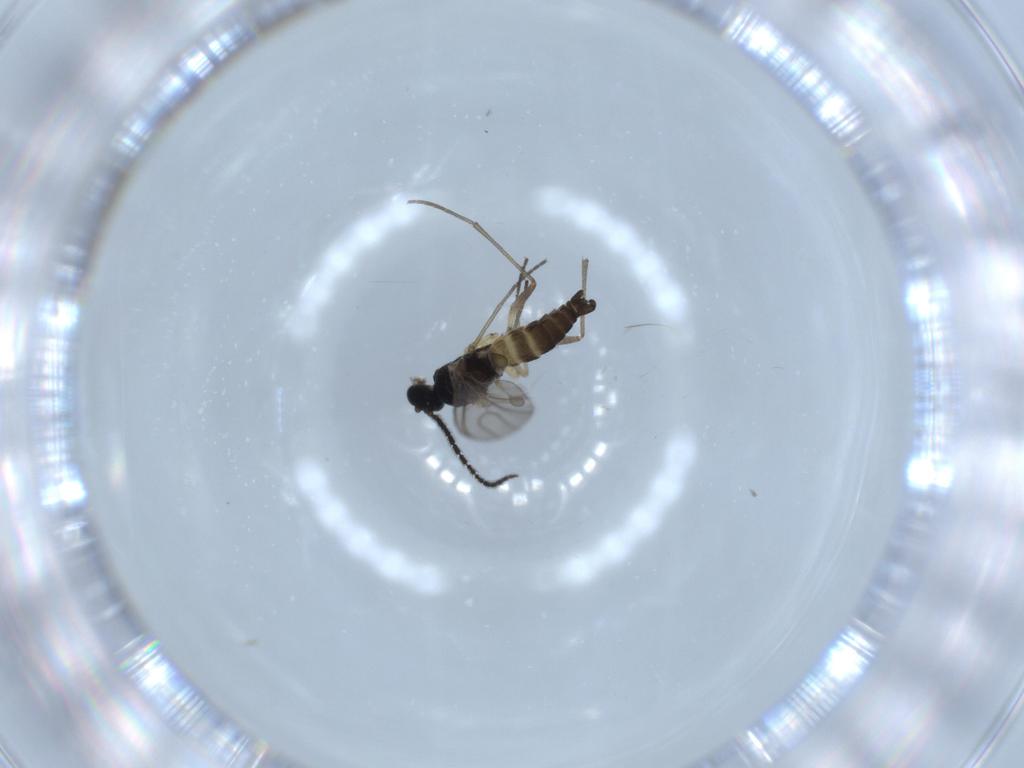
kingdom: Animalia
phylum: Arthropoda
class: Insecta
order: Diptera
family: Sciaridae
